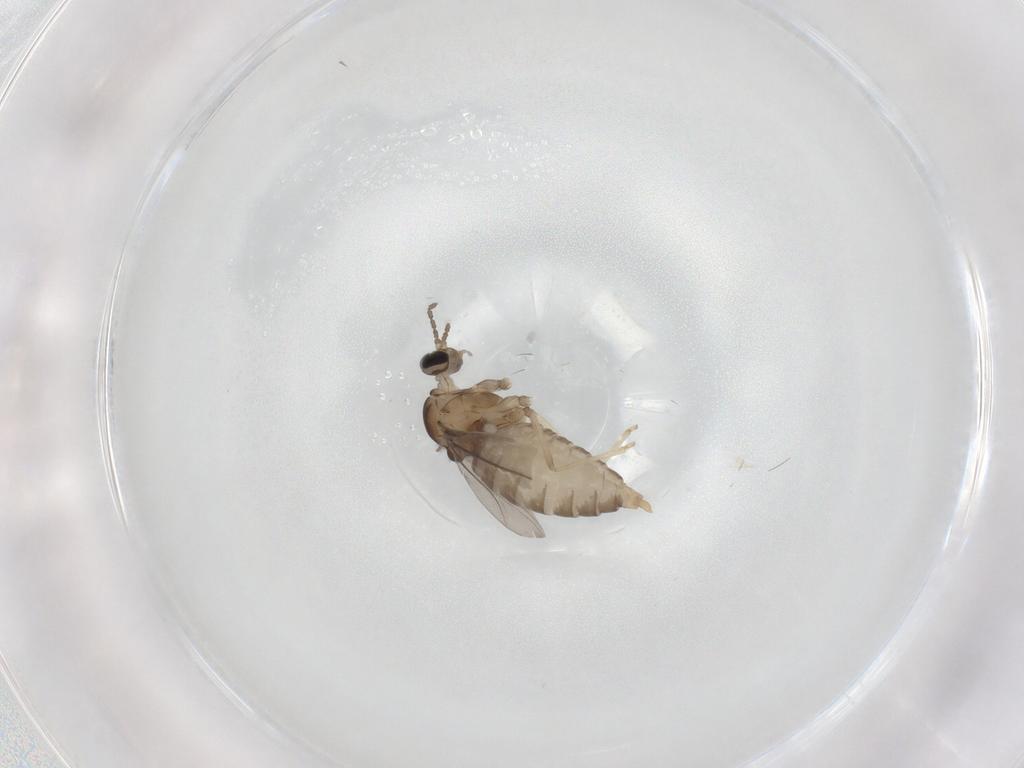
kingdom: Animalia
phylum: Arthropoda
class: Insecta
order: Diptera
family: Cecidomyiidae
